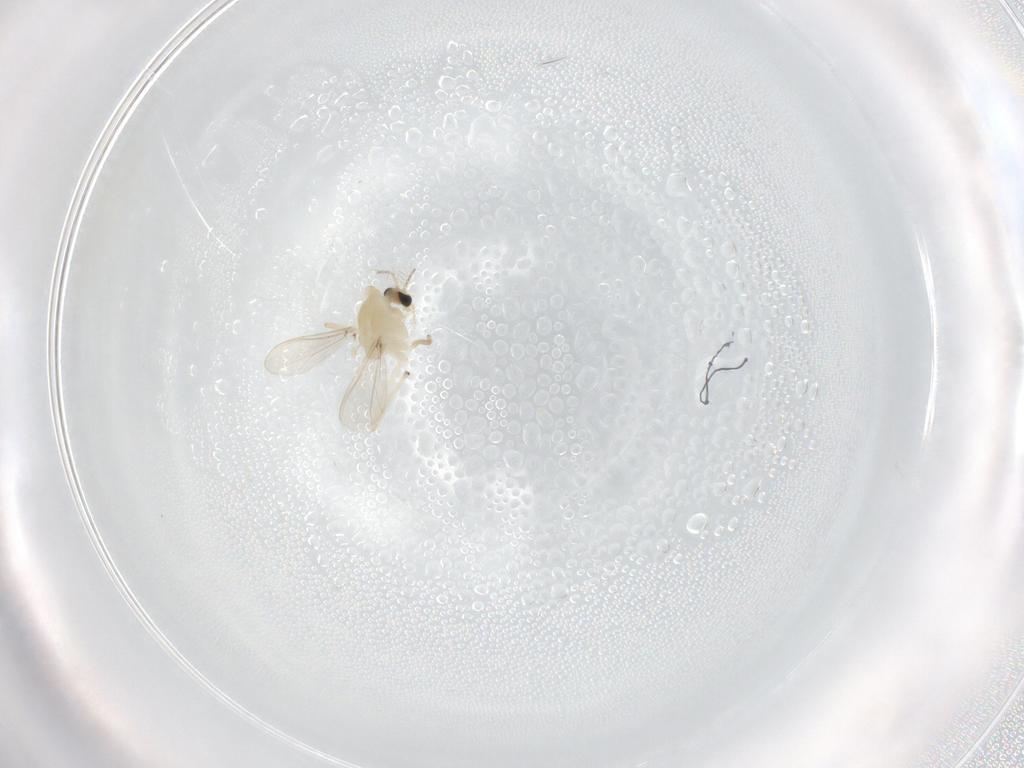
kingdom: Animalia
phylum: Arthropoda
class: Insecta
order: Diptera
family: Chironomidae
